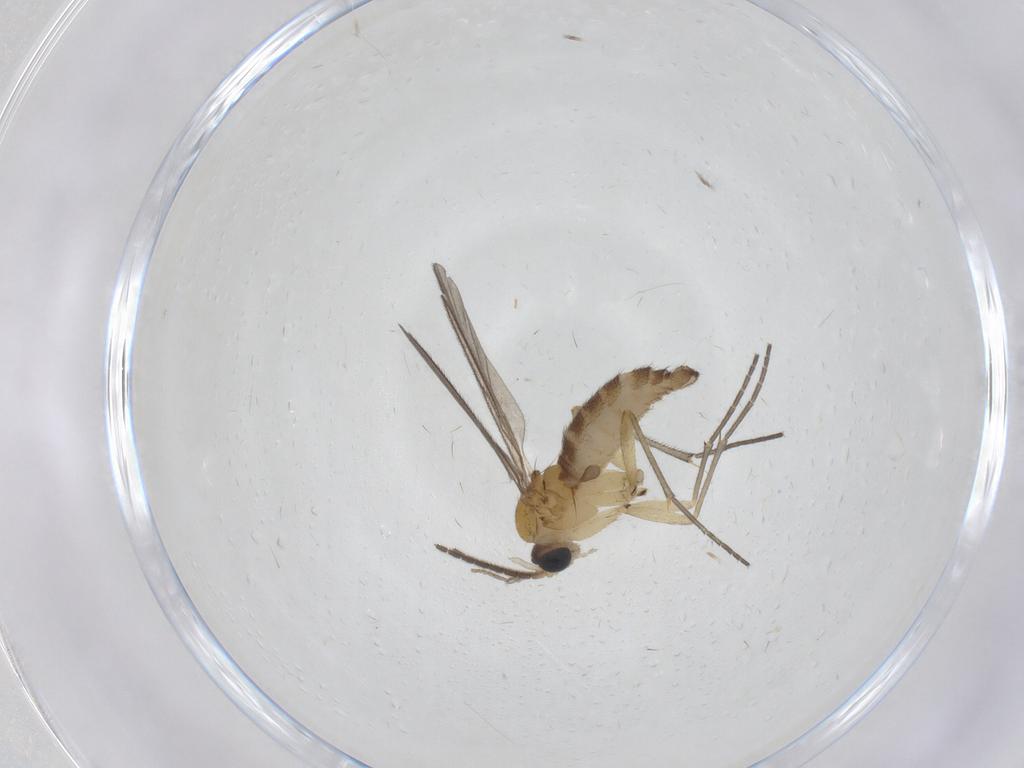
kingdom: Animalia
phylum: Arthropoda
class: Insecta
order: Diptera
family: Psychodidae
